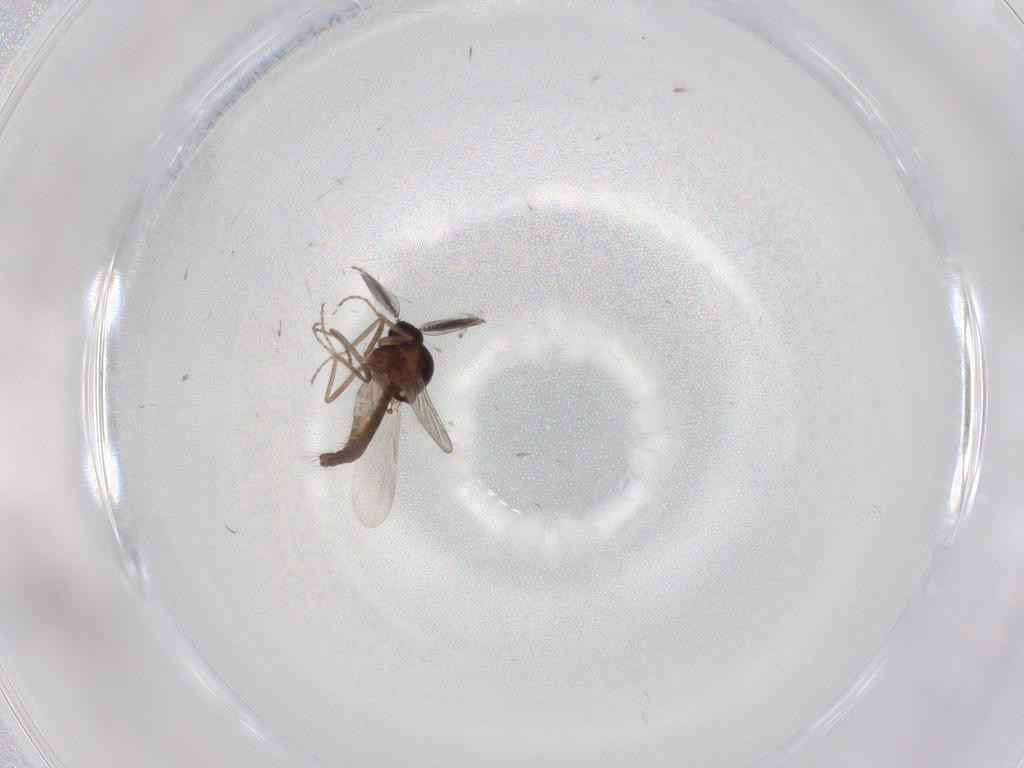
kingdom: Animalia
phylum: Arthropoda
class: Insecta
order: Diptera
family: Ceratopogonidae
